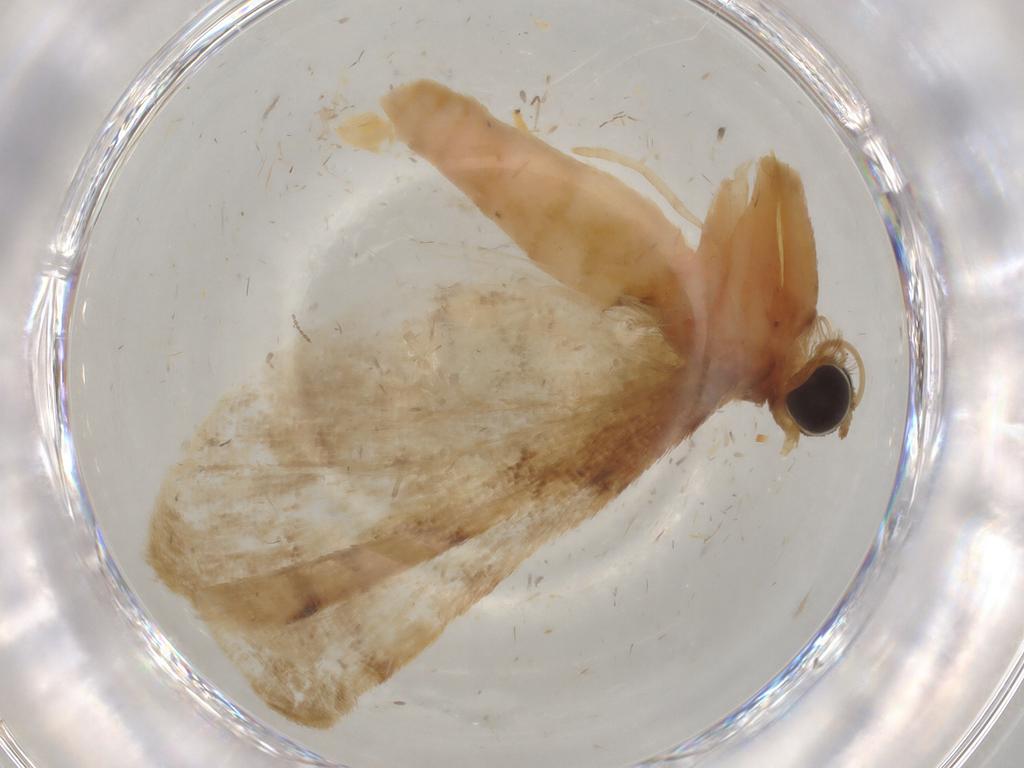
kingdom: Animalia
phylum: Arthropoda
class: Insecta
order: Lepidoptera
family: Geometridae
